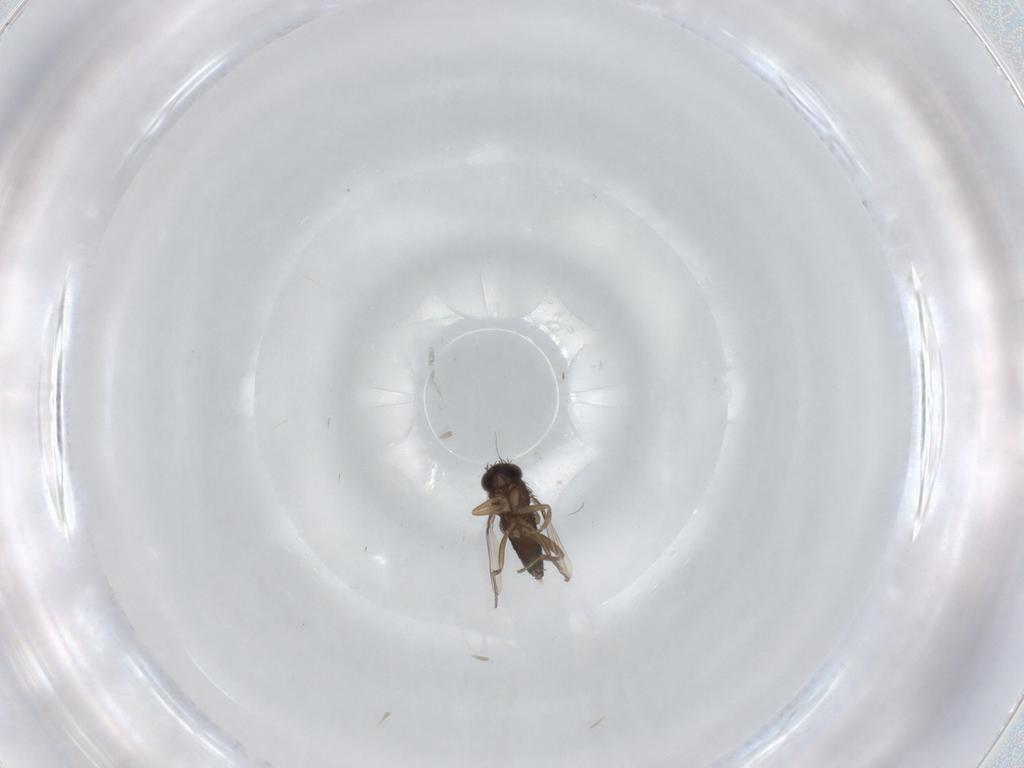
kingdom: Animalia
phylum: Arthropoda
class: Insecta
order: Diptera
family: Phoridae
